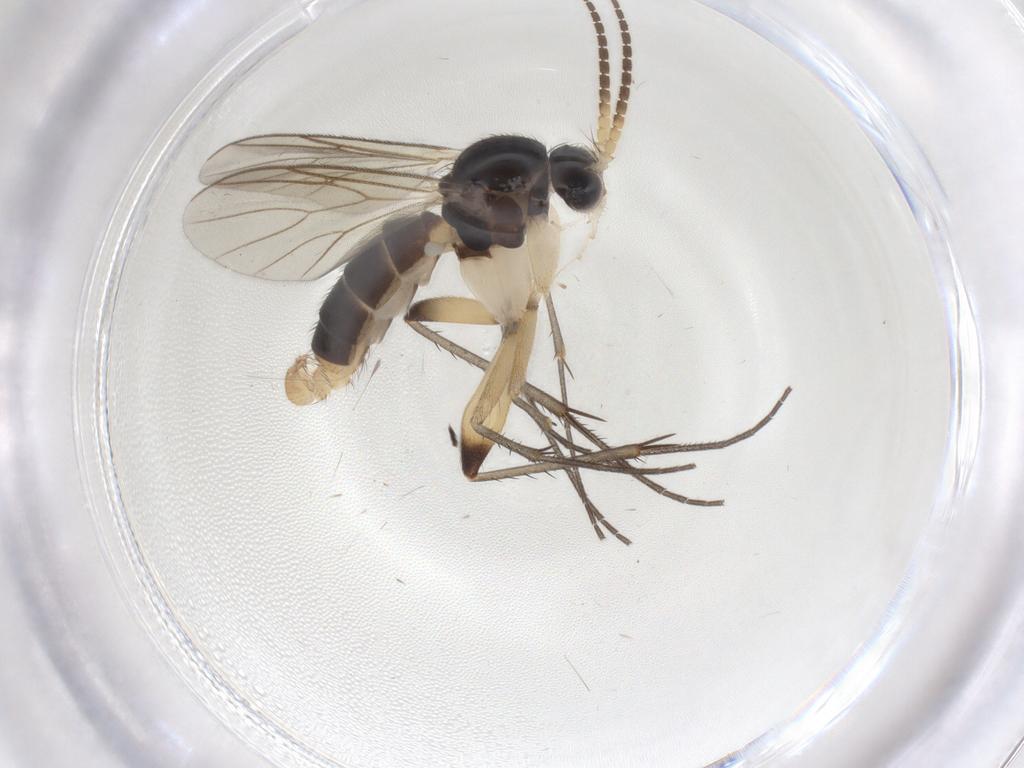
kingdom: Animalia
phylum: Arthropoda
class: Insecta
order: Diptera
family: Mycetophilidae
